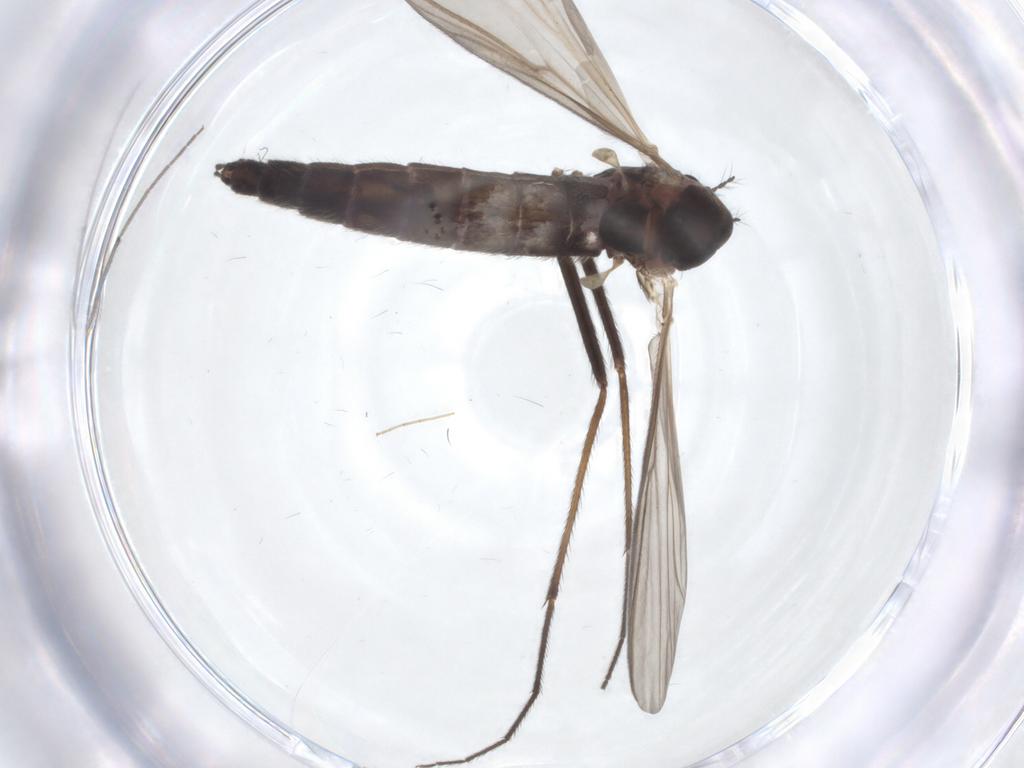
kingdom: Animalia
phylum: Arthropoda
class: Insecta
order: Diptera
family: Chironomidae
